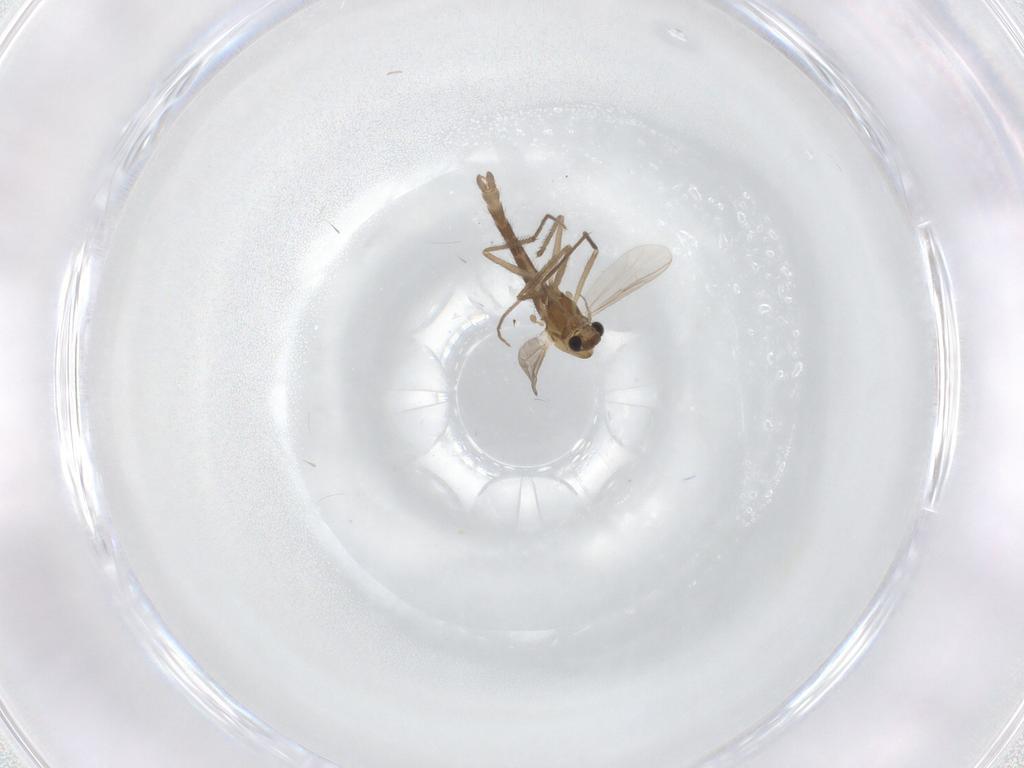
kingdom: Animalia
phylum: Arthropoda
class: Insecta
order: Diptera
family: Chironomidae
